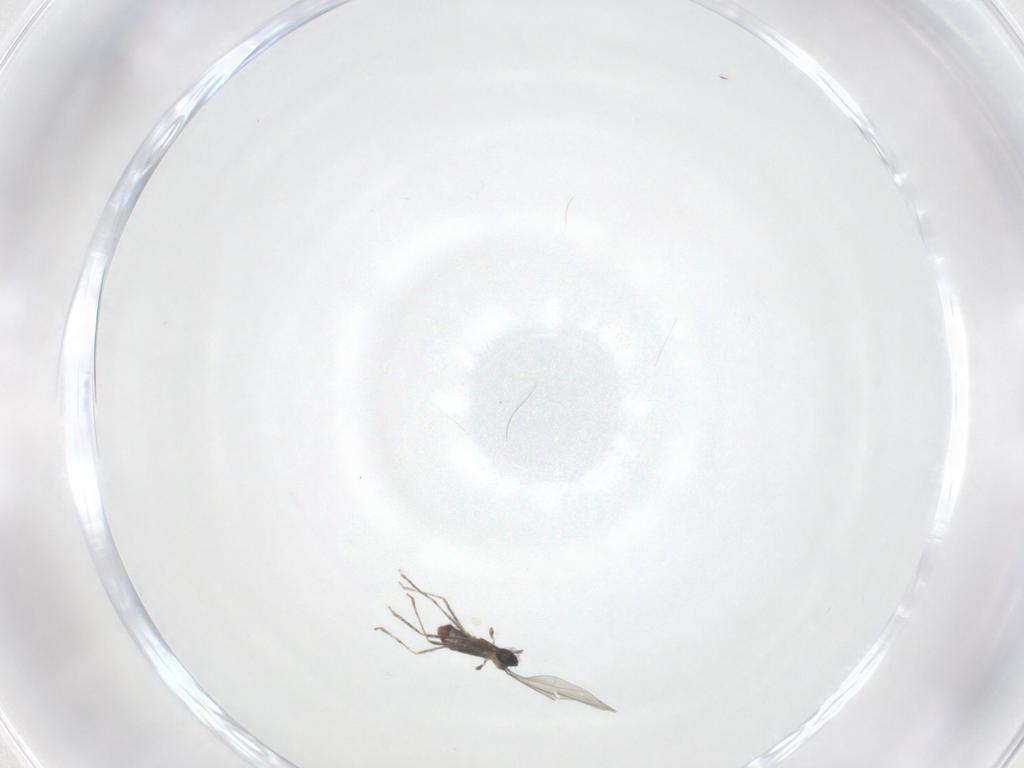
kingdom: Animalia
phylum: Arthropoda
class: Insecta
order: Diptera
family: Cecidomyiidae
